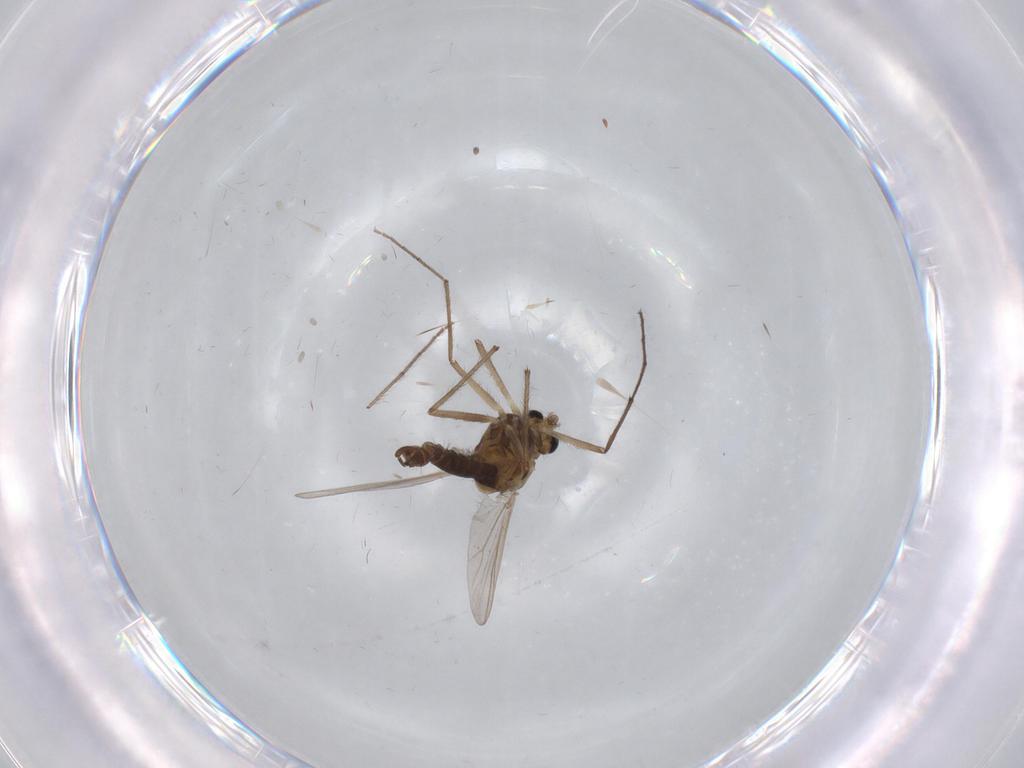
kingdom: Animalia
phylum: Arthropoda
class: Insecta
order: Diptera
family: Chironomidae
